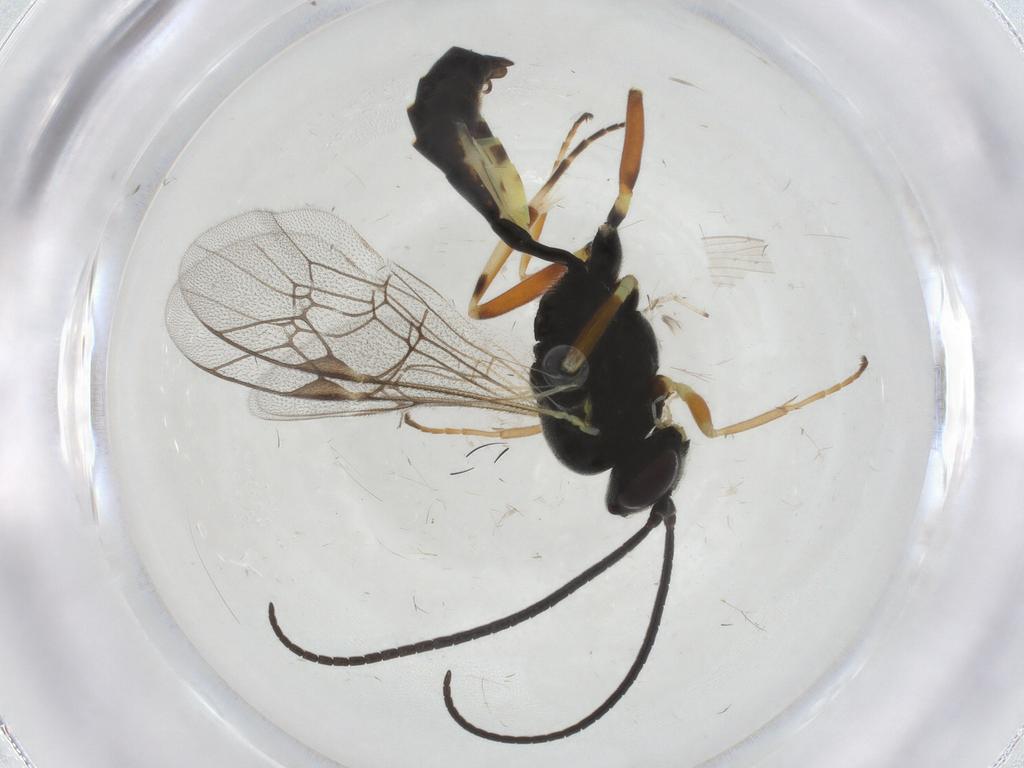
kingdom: Animalia
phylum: Arthropoda
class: Insecta
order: Hymenoptera
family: Ichneumonidae
